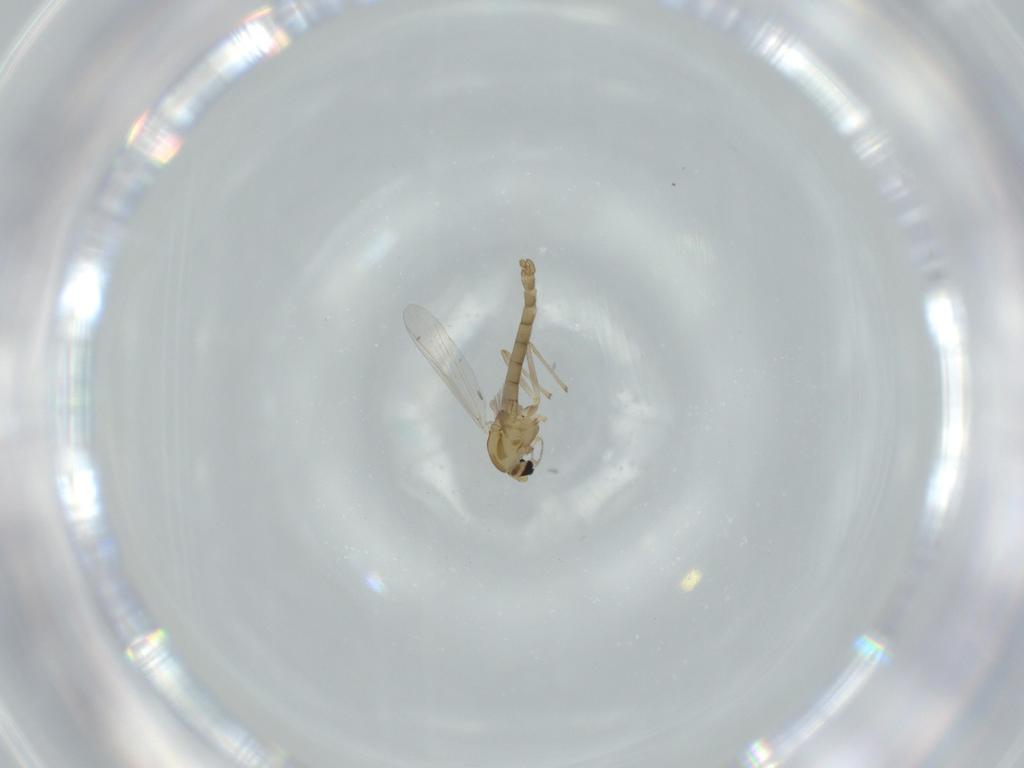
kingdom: Animalia
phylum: Arthropoda
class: Insecta
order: Diptera
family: Chironomidae
